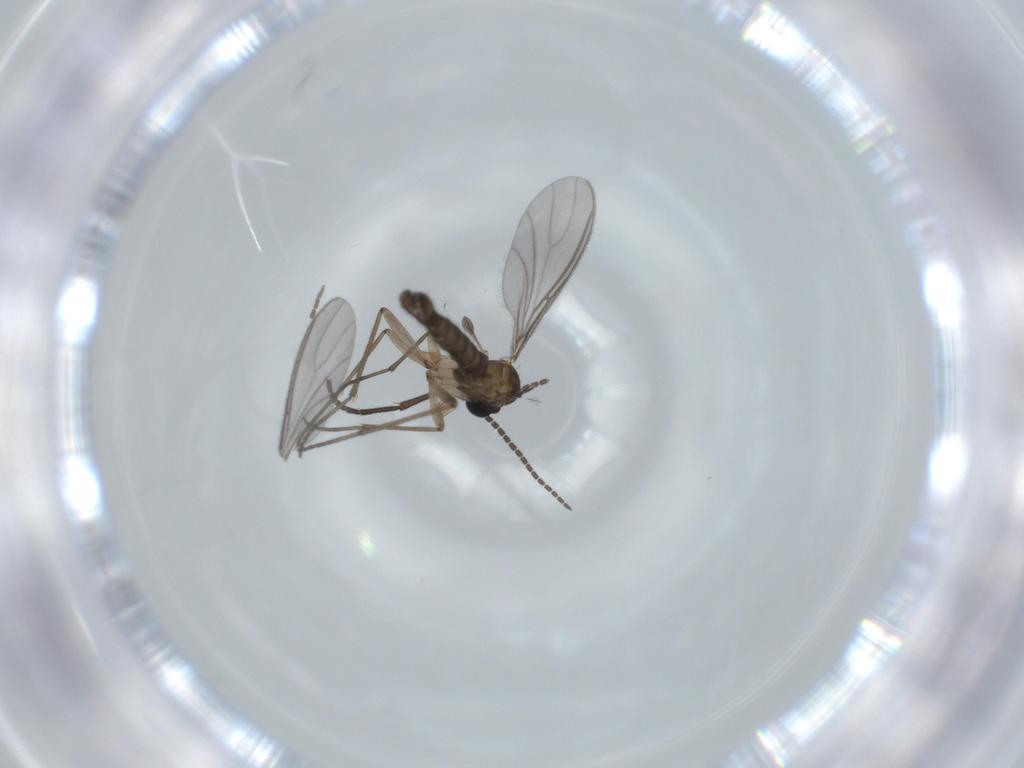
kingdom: Animalia
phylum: Arthropoda
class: Insecta
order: Diptera
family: Sciaridae
